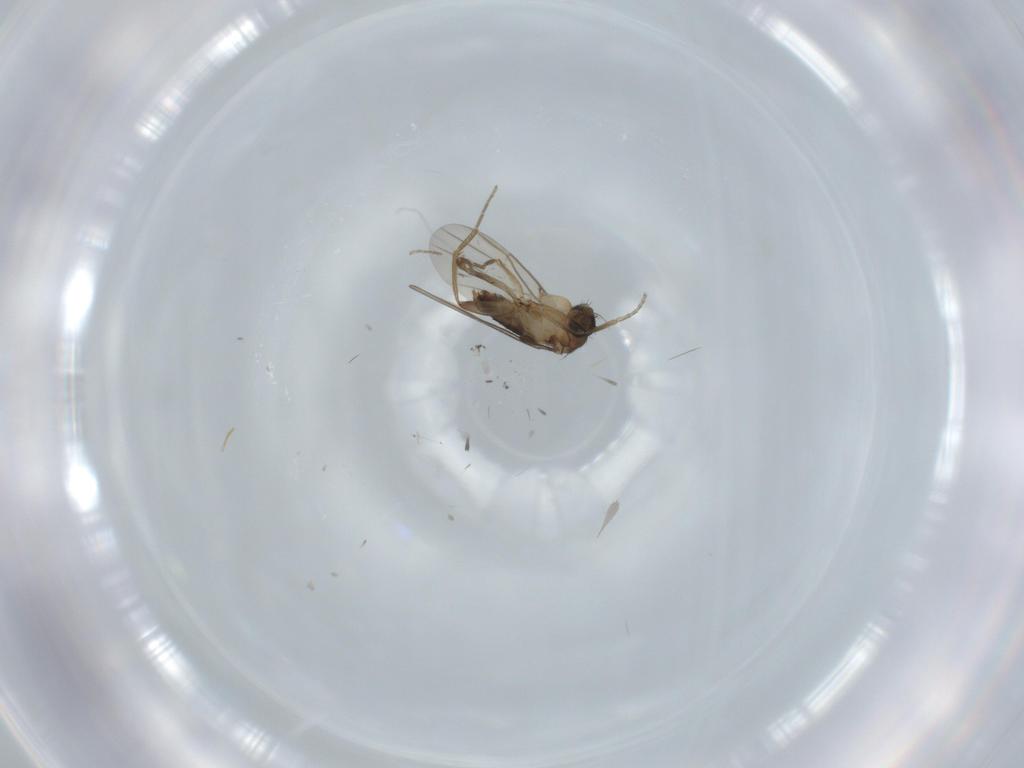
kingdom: Animalia
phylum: Arthropoda
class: Insecta
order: Diptera
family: Phoridae
